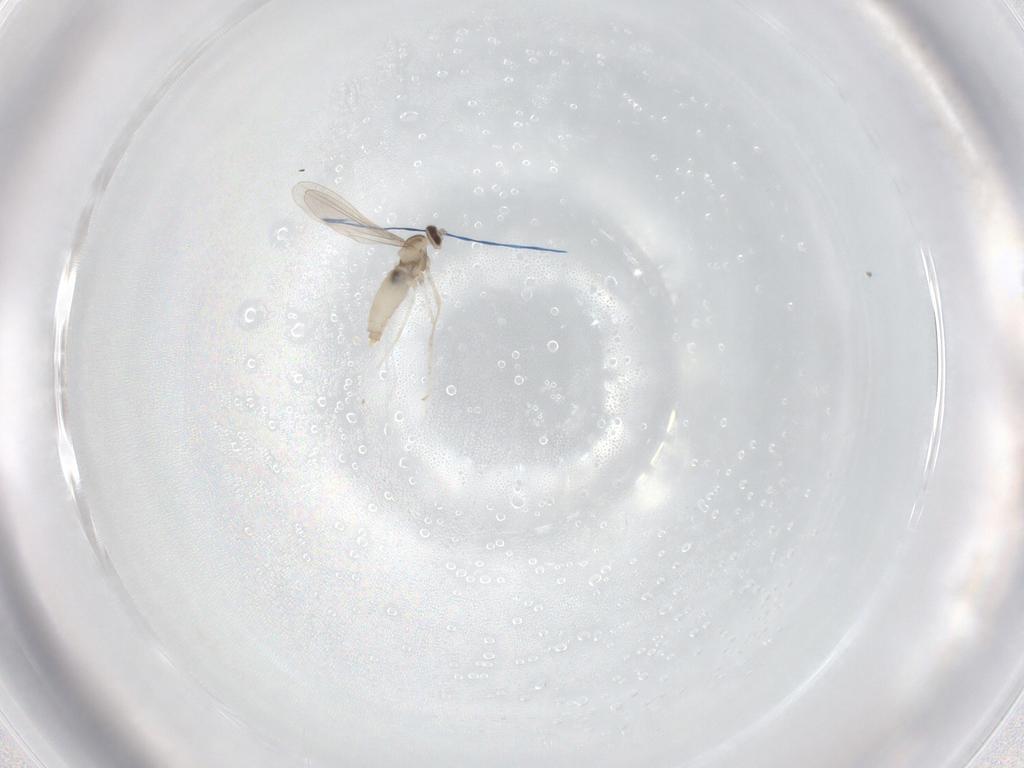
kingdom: Animalia
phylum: Arthropoda
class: Insecta
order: Diptera
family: Cecidomyiidae
